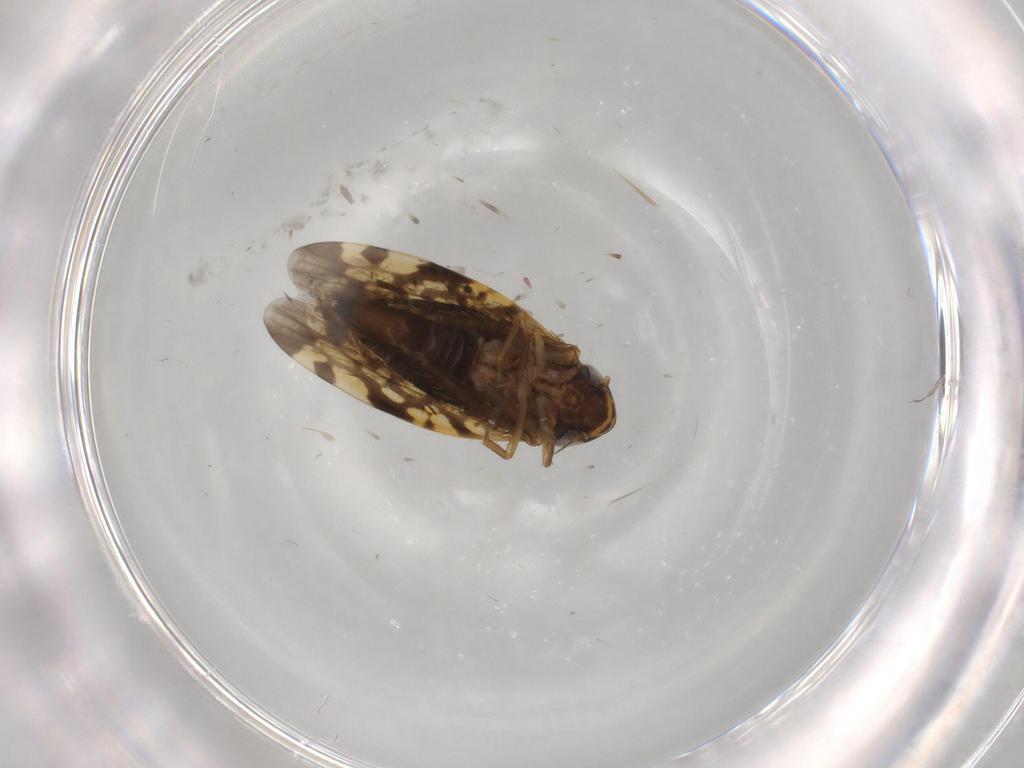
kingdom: Animalia
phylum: Arthropoda
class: Insecta
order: Hemiptera
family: Cicadellidae
